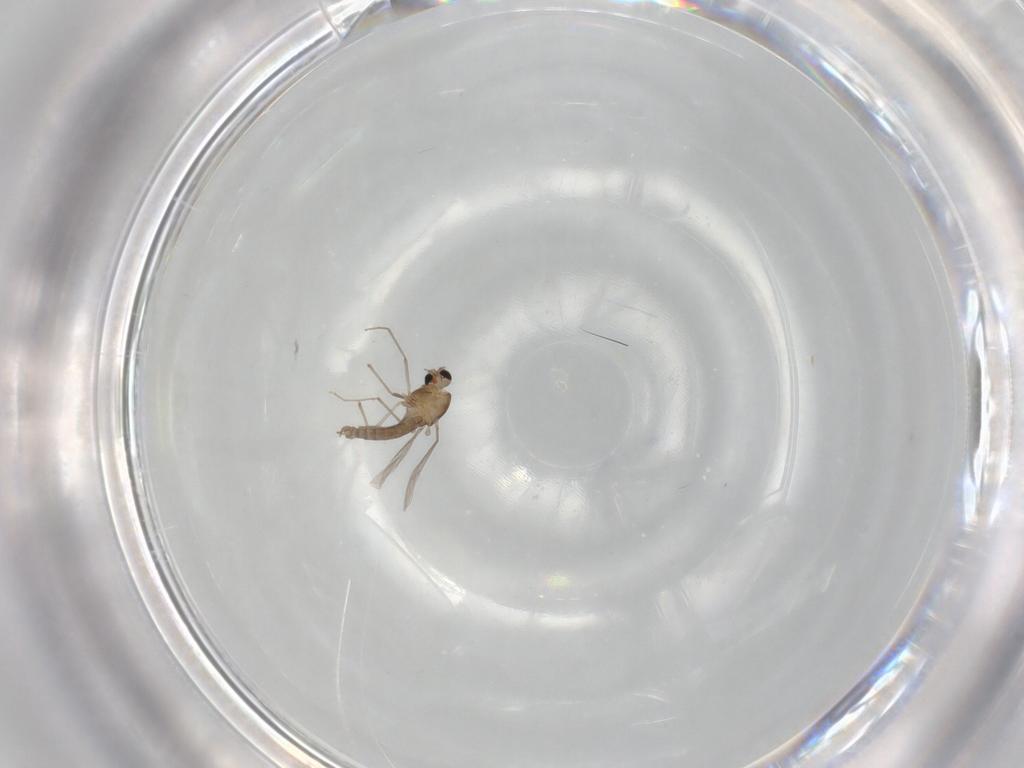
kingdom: Animalia
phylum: Arthropoda
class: Insecta
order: Diptera
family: Chironomidae
